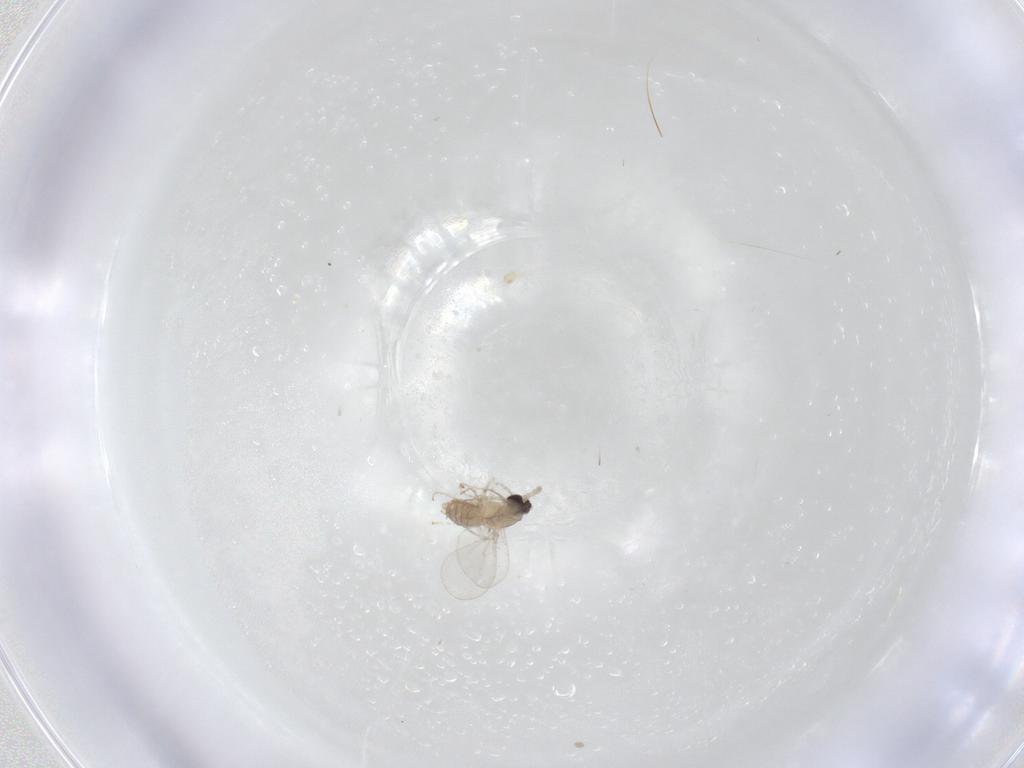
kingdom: Animalia
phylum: Arthropoda
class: Insecta
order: Diptera
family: Cecidomyiidae
